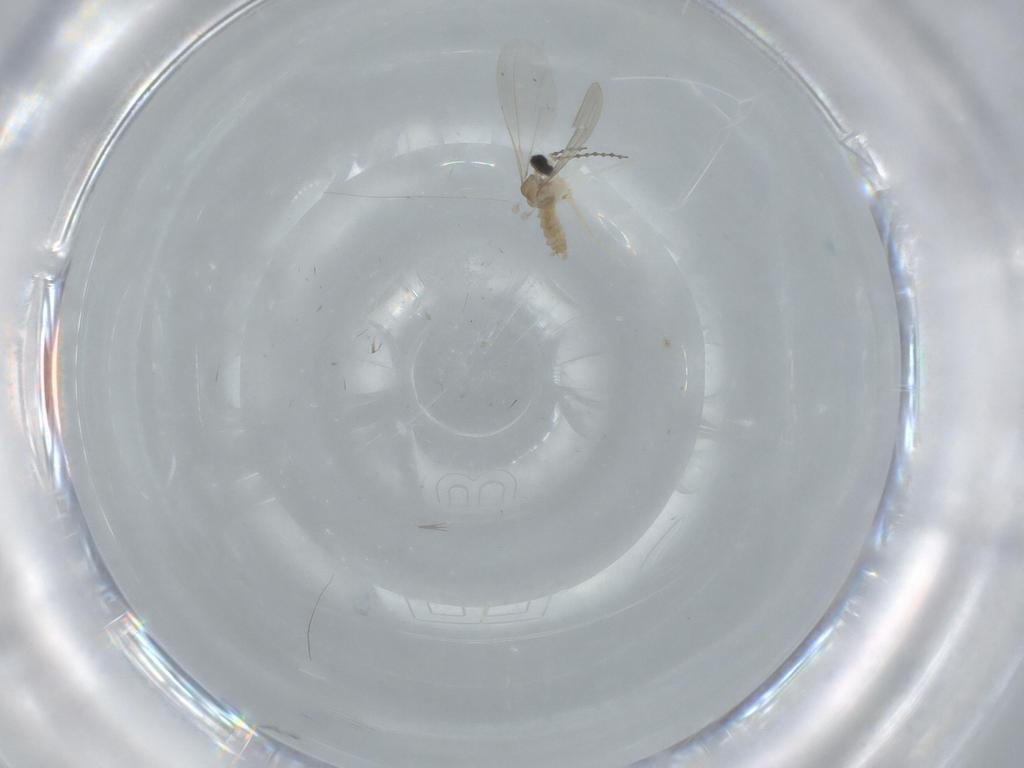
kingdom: Animalia
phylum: Arthropoda
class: Insecta
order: Diptera
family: Cecidomyiidae
